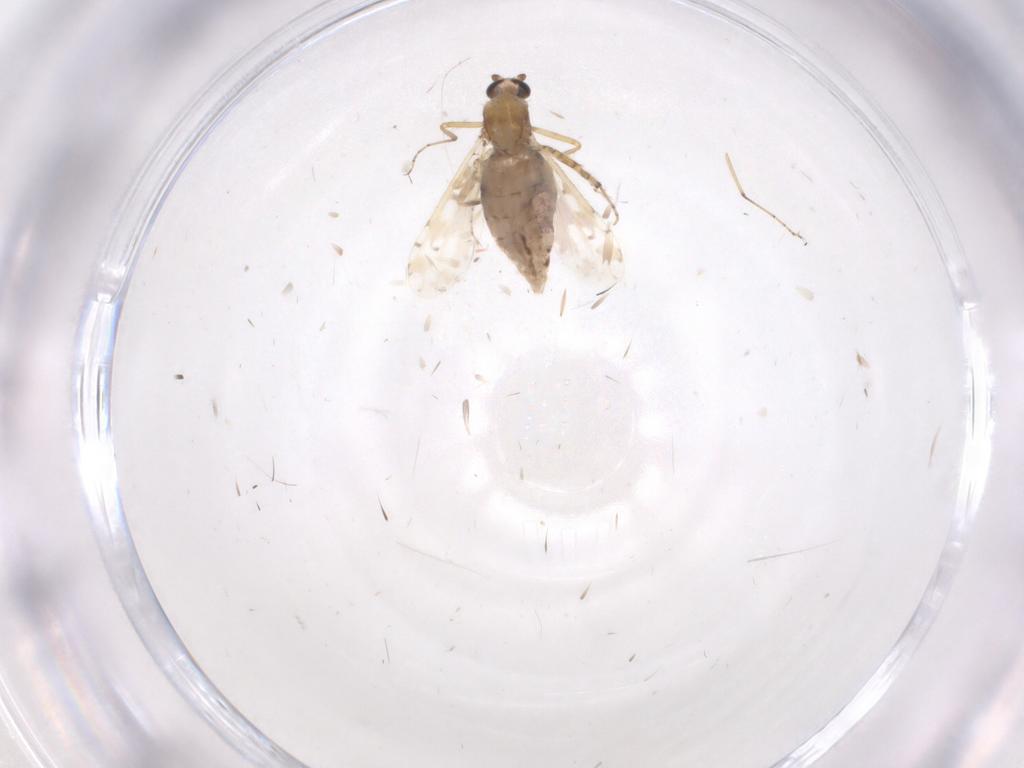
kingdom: Animalia
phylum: Arthropoda
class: Insecta
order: Diptera
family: Ceratopogonidae
